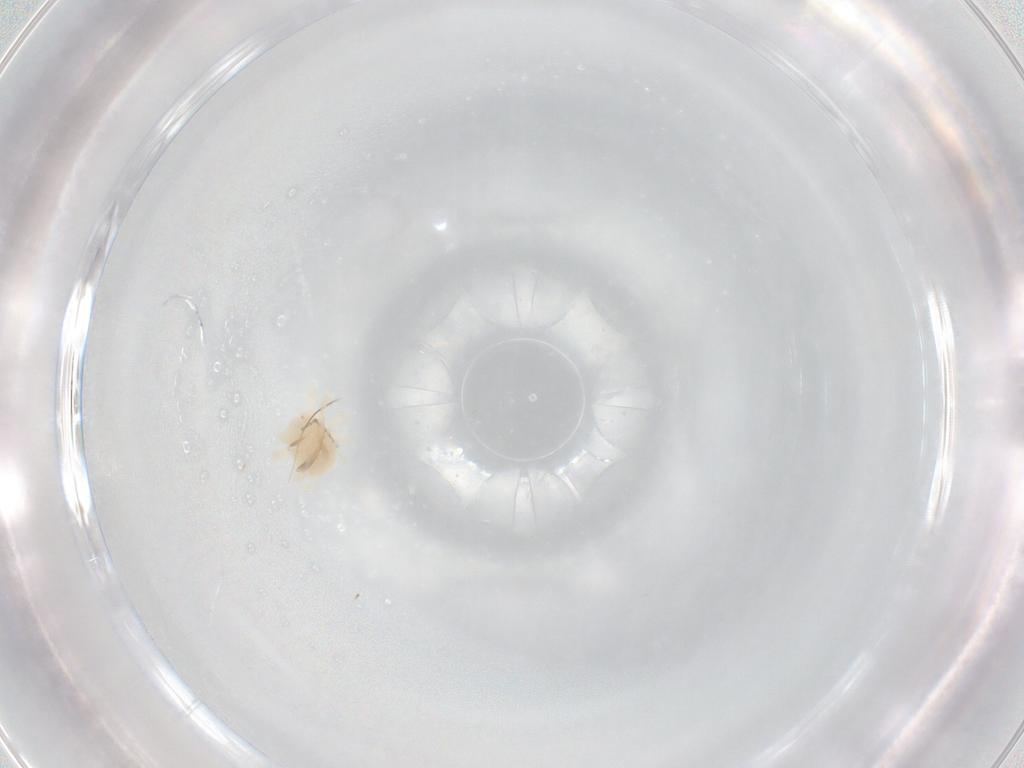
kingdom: Animalia
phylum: Arthropoda
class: Arachnida
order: Trombidiformes
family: Anystidae
